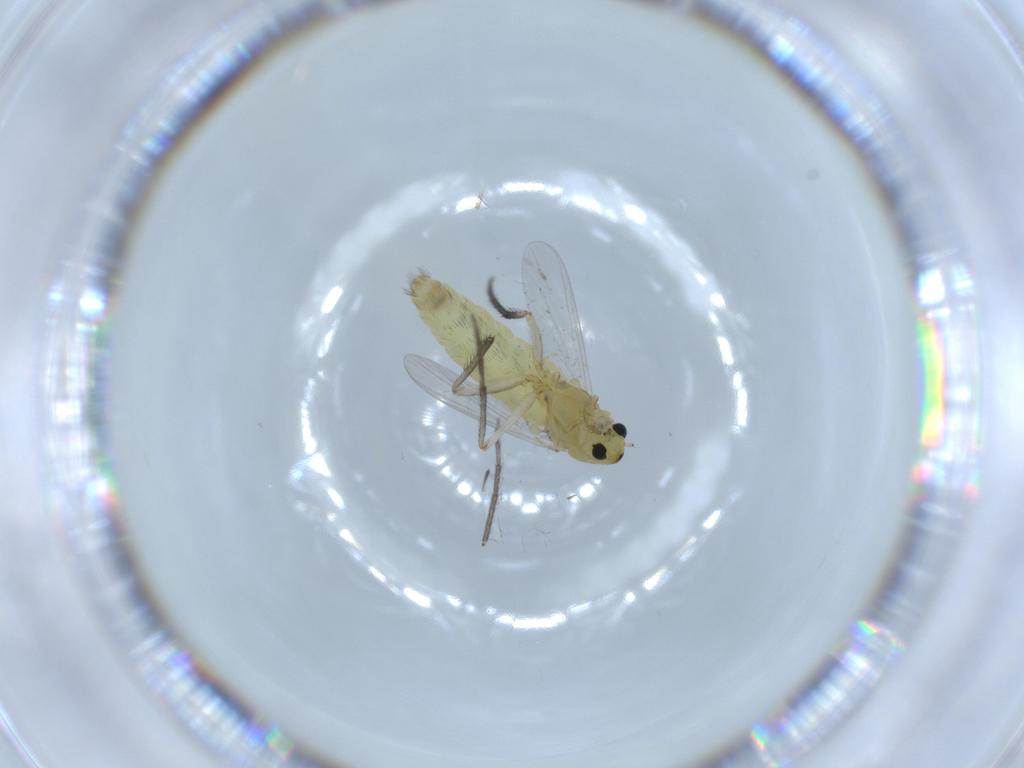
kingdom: Animalia
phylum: Arthropoda
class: Insecta
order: Diptera
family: Chironomidae
